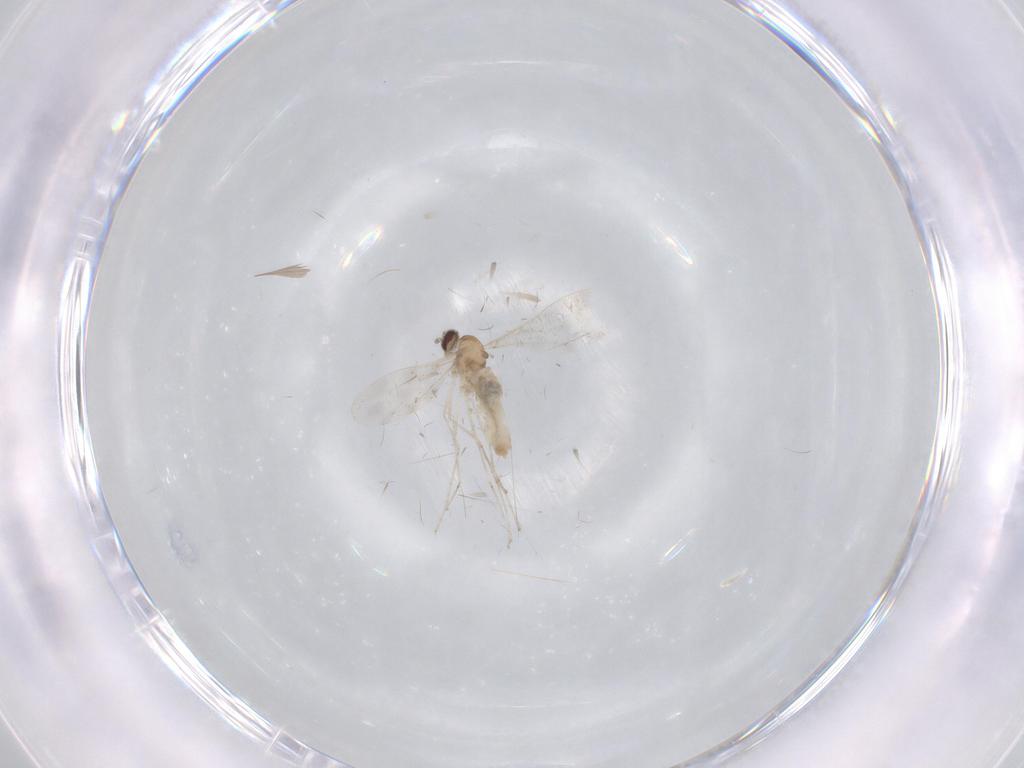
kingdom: Animalia
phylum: Arthropoda
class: Insecta
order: Diptera
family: Cecidomyiidae
